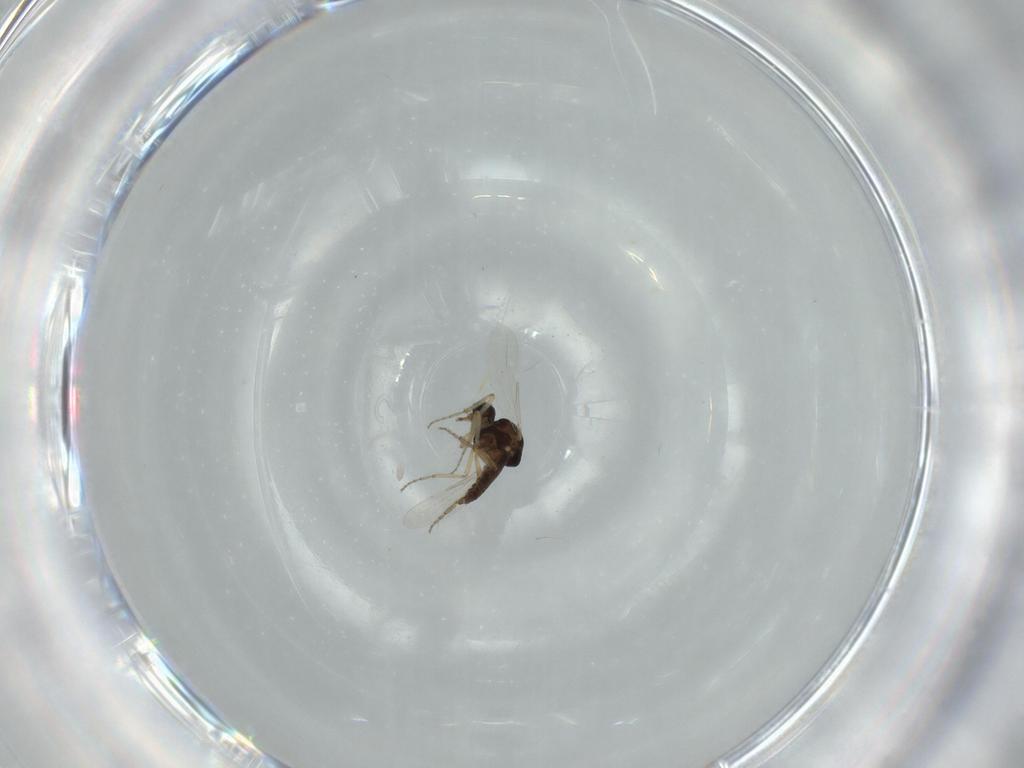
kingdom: Animalia
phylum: Arthropoda
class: Insecta
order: Diptera
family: Ceratopogonidae
